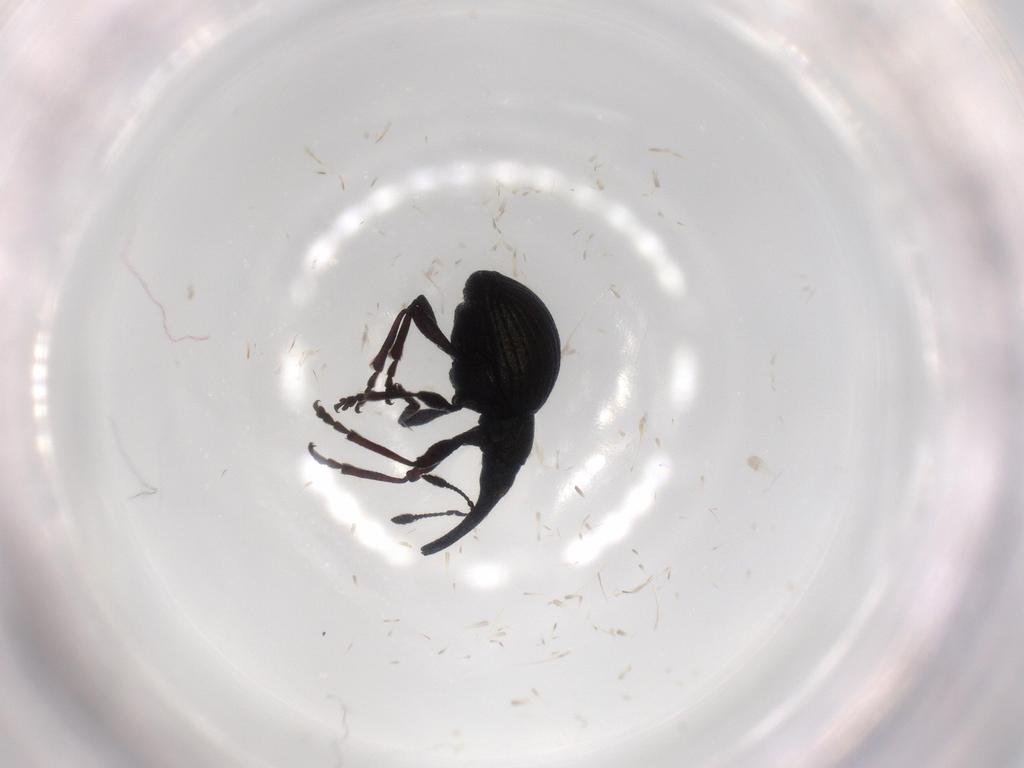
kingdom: Animalia
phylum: Arthropoda
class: Insecta
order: Coleoptera
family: Brentidae
